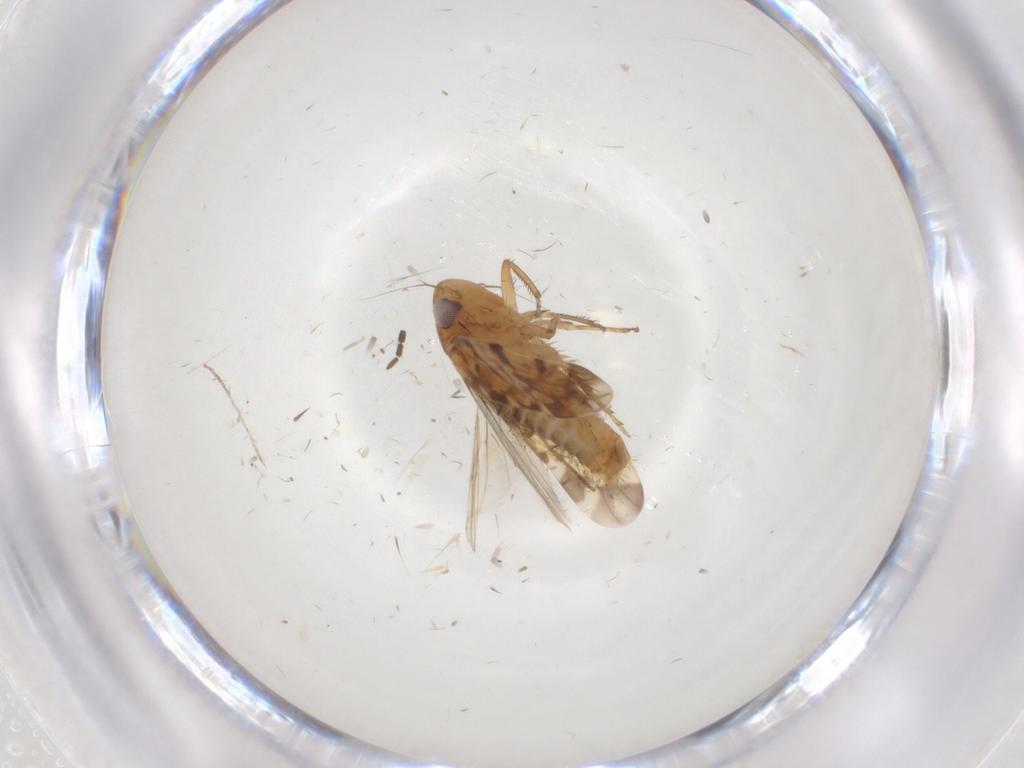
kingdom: Animalia
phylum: Arthropoda
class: Insecta
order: Hemiptera
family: Cicadellidae
